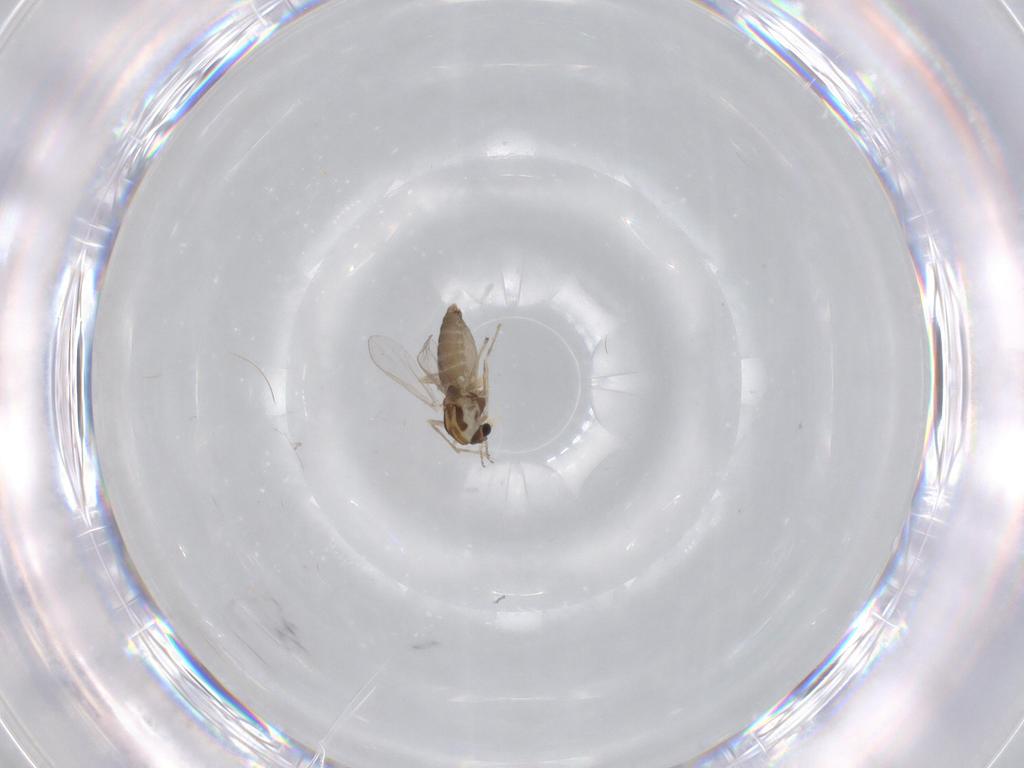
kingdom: Animalia
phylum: Arthropoda
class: Insecta
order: Diptera
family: Chironomidae
